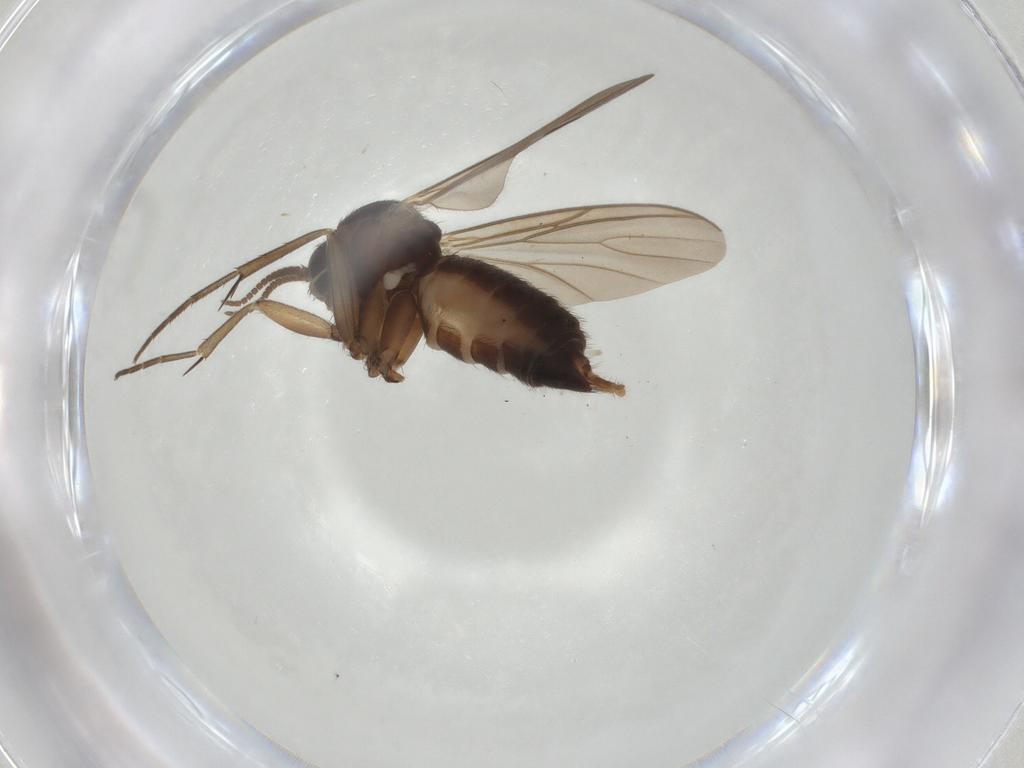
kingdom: Animalia
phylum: Arthropoda
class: Insecta
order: Diptera
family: Mycetophilidae
